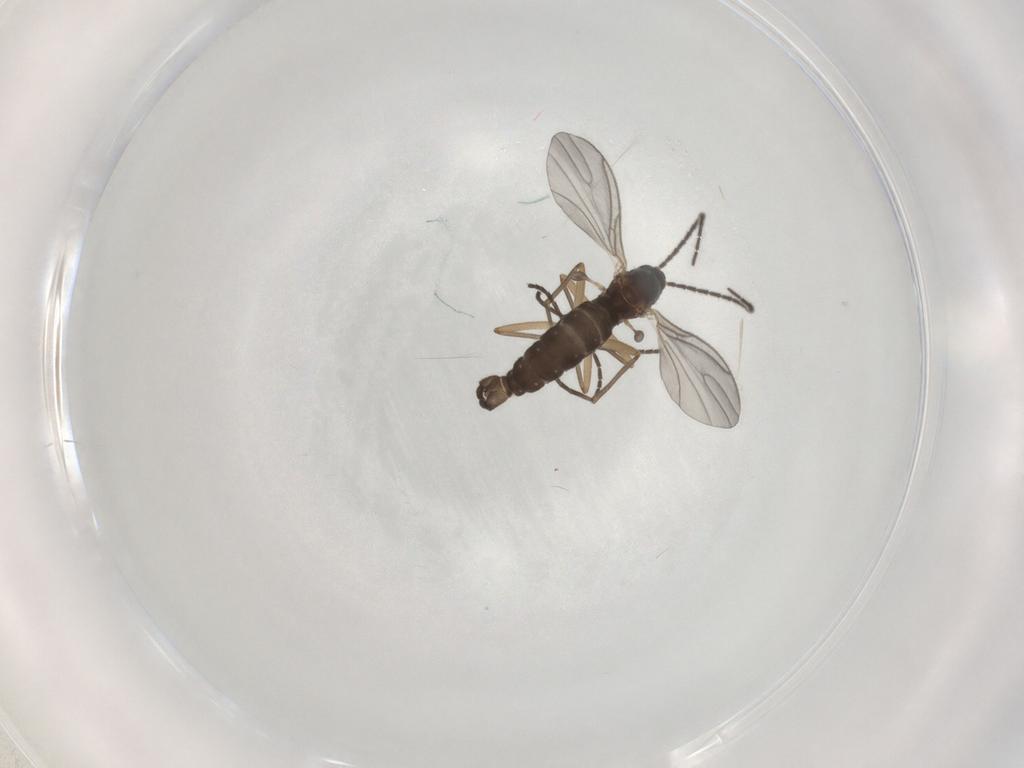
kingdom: Animalia
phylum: Arthropoda
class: Insecta
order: Diptera
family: Sciaridae
